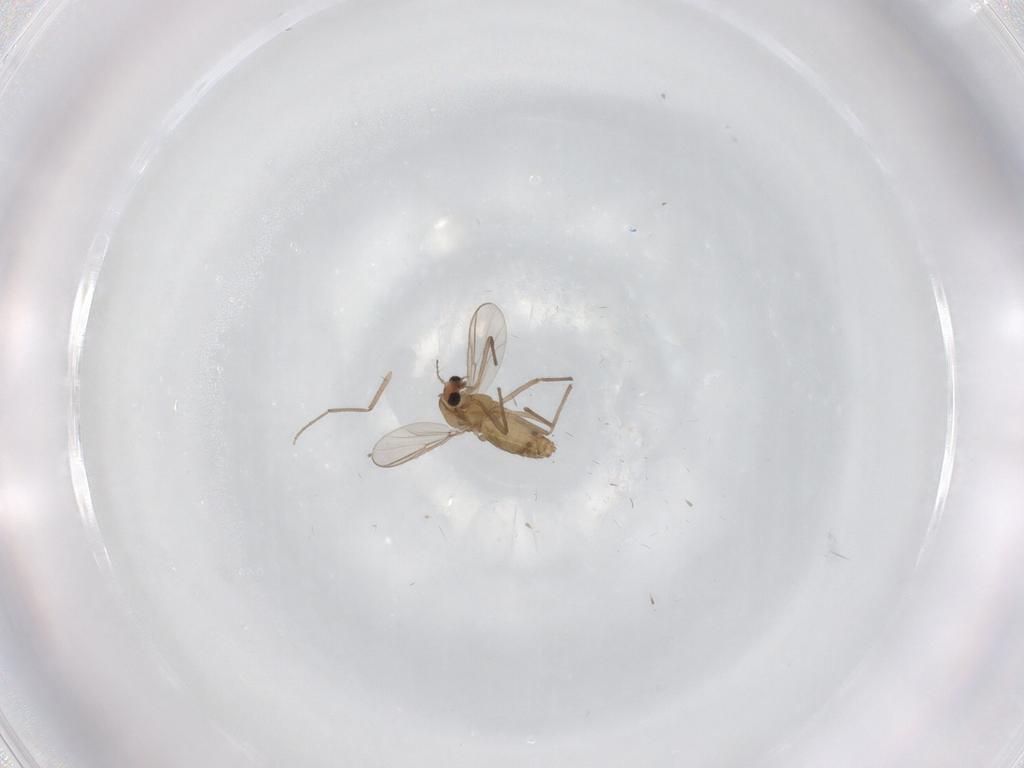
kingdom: Animalia
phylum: Arthropoda
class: Insecta
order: Diptera
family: Chironomidae
